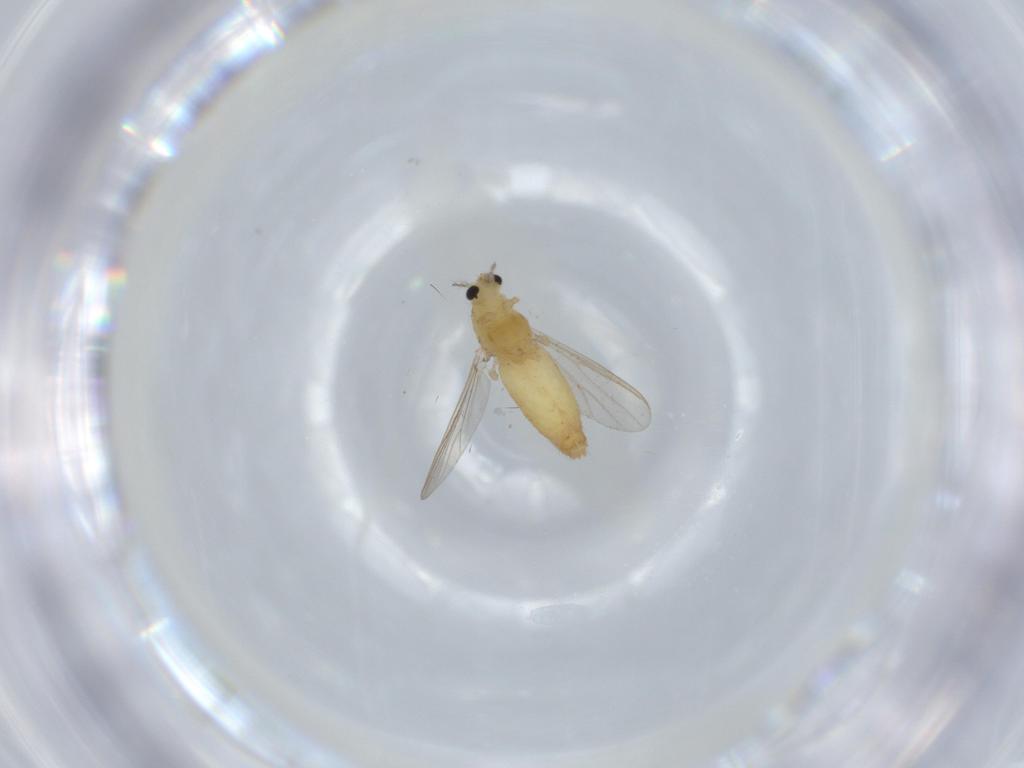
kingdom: Animalia
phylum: Arthropoda
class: Insecta
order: Diptera
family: Chironomidae
